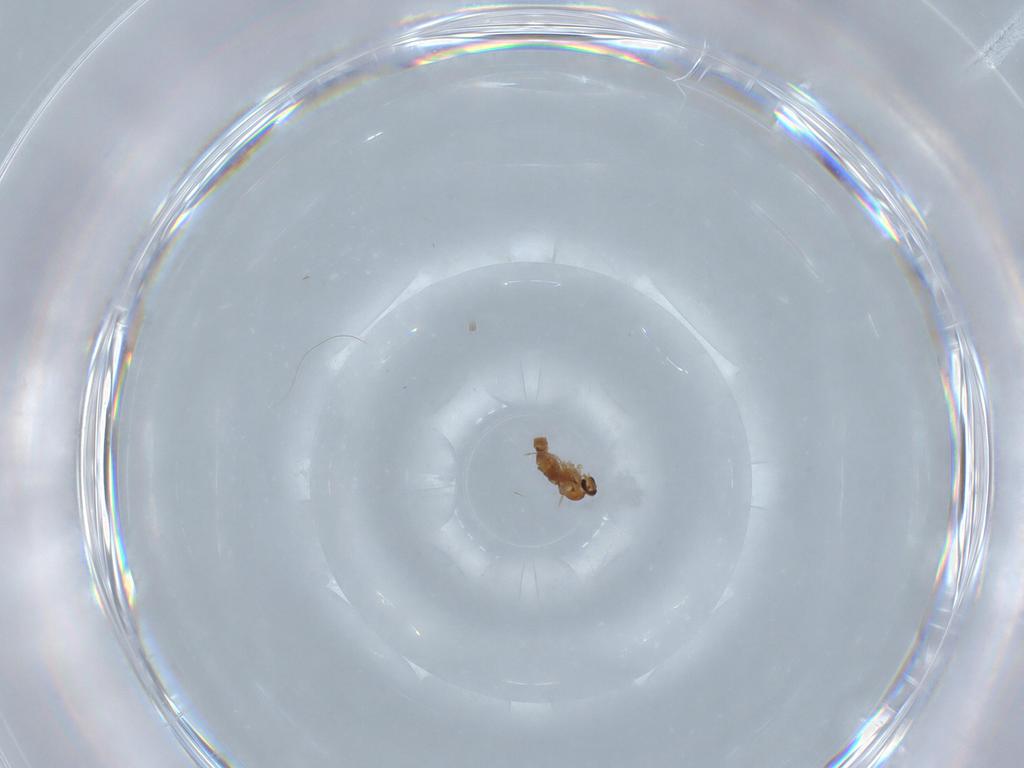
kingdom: Animalia
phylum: Arthropoda
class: Insecta
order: Diptera
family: Cecidomyiidae
